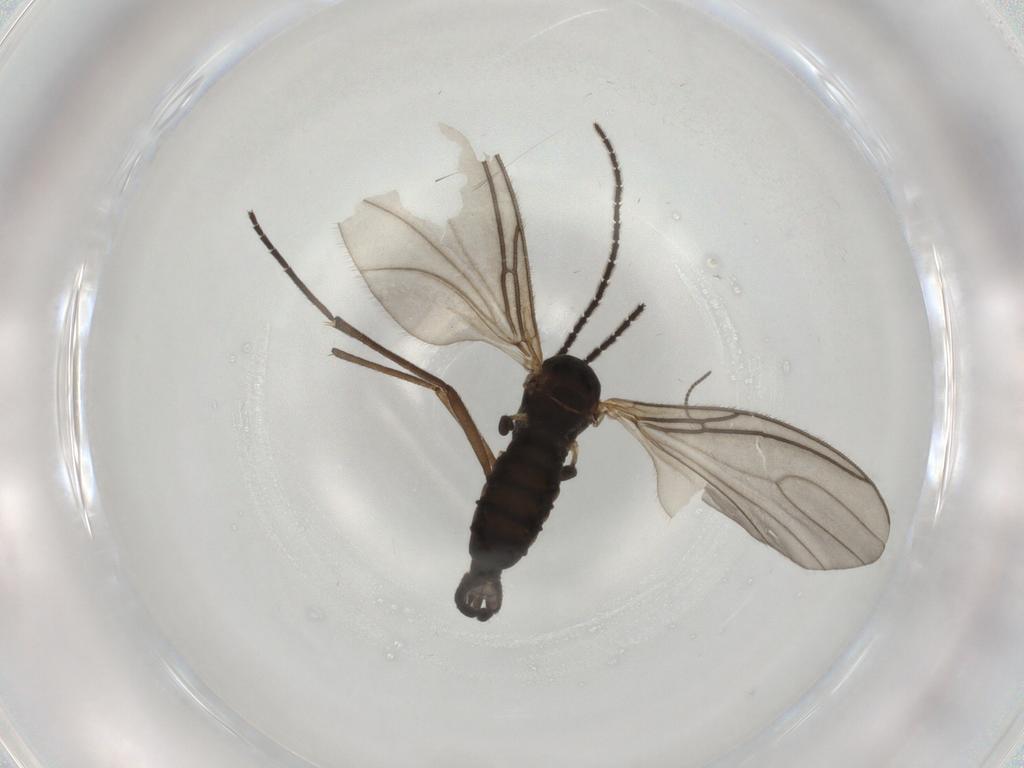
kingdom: Animalia
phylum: Arthropoda
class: Insecta
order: Diptera
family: Sciaridae
